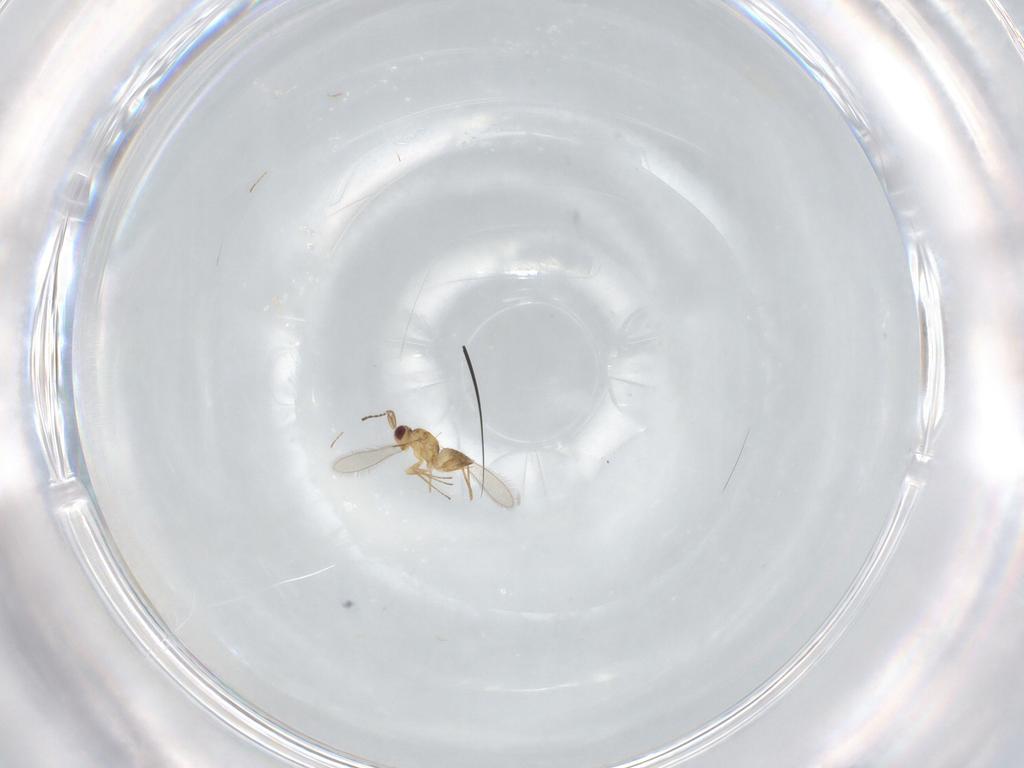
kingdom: Animalia
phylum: Arthropoda
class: Insecta
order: Hymenoptera
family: Mymaridae
